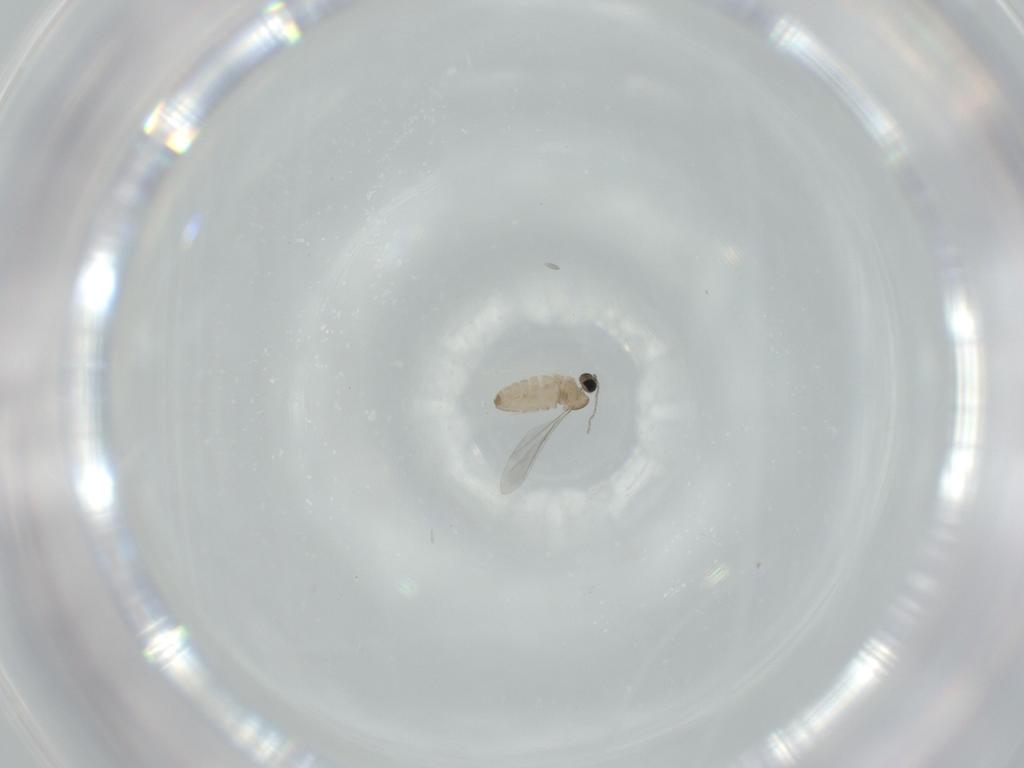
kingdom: Animalia
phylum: Arthropoda
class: Insecta
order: Diptera
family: Cecidomyiidae
